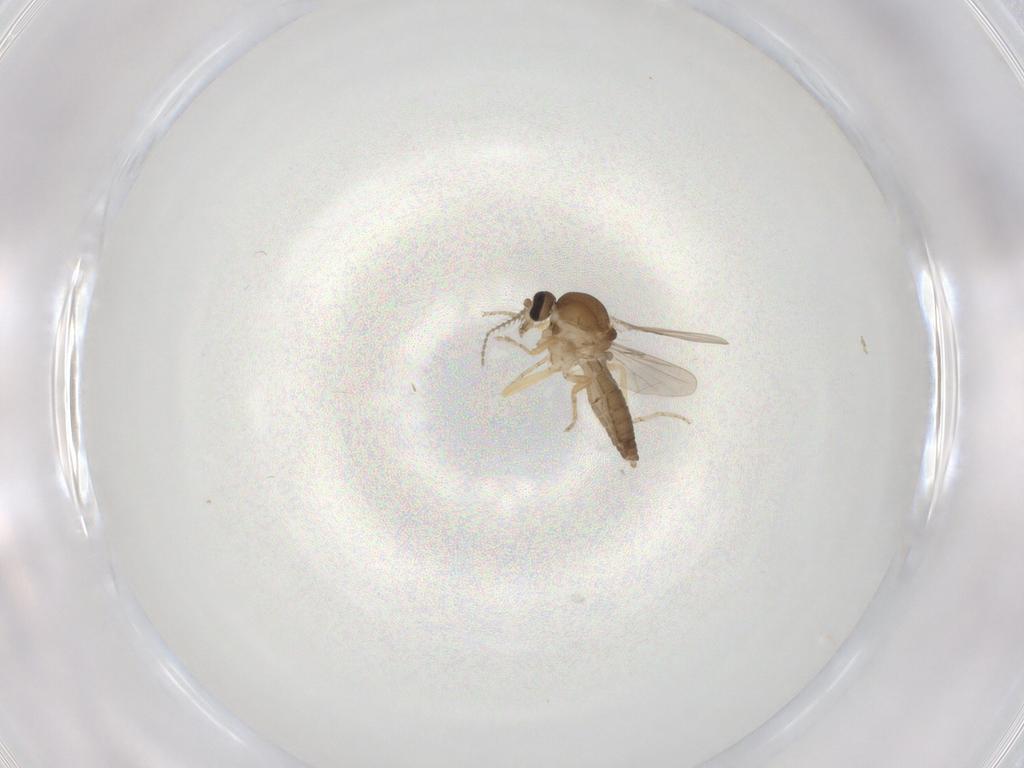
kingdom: Animalia
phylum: Arthropoda
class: Insecta
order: Diptera
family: Ceratopogonidae
